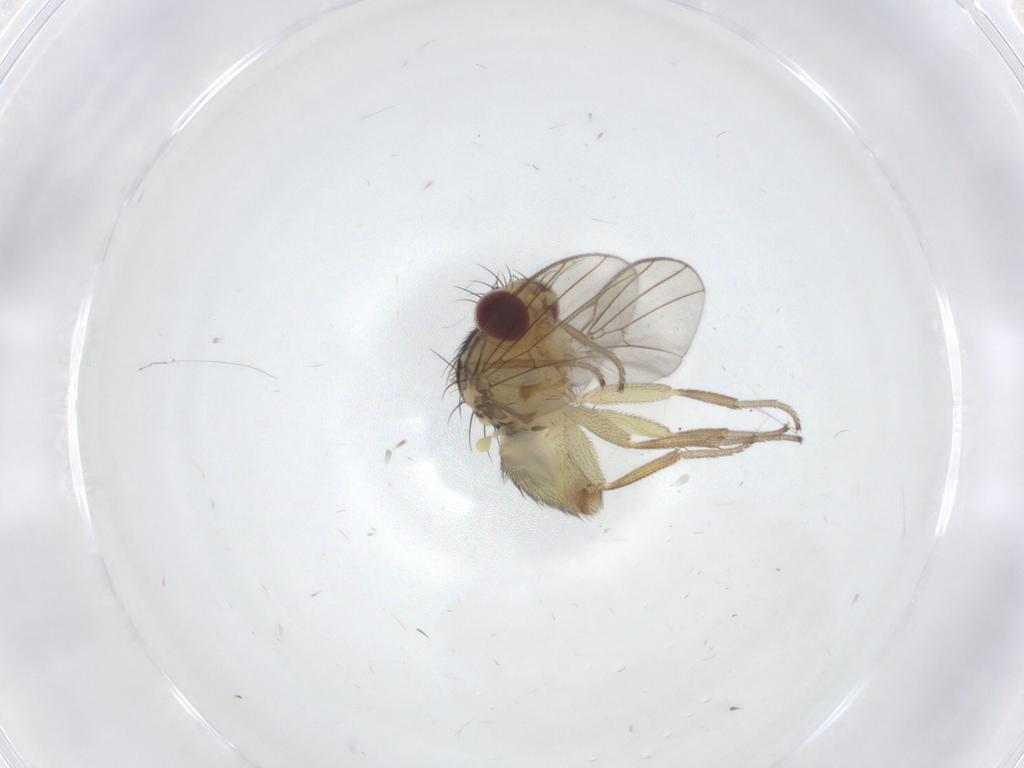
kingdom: Animalia
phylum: Arthropoda
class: Insecta
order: Diptera
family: Agromyzidae
